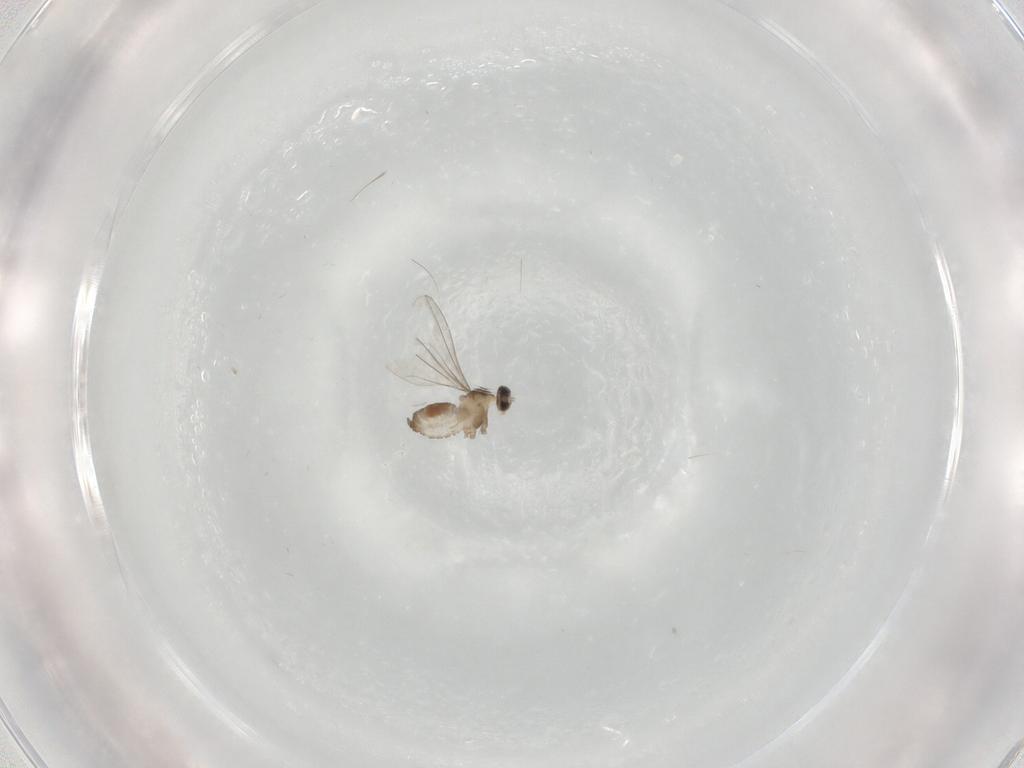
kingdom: Animalia
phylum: Arthropoda
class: Insecta
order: Diptera
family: Cecidomyiidae
